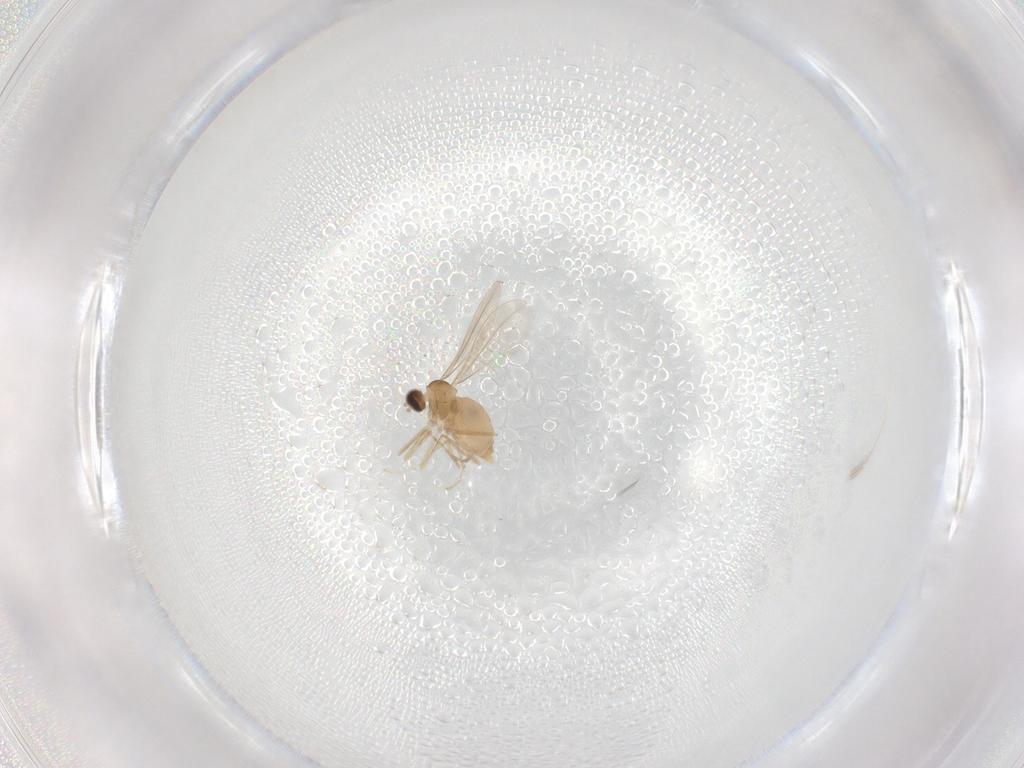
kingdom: Animalia
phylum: Arthropoda
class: Insecta
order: Diptera
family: Cecidomyiidae
